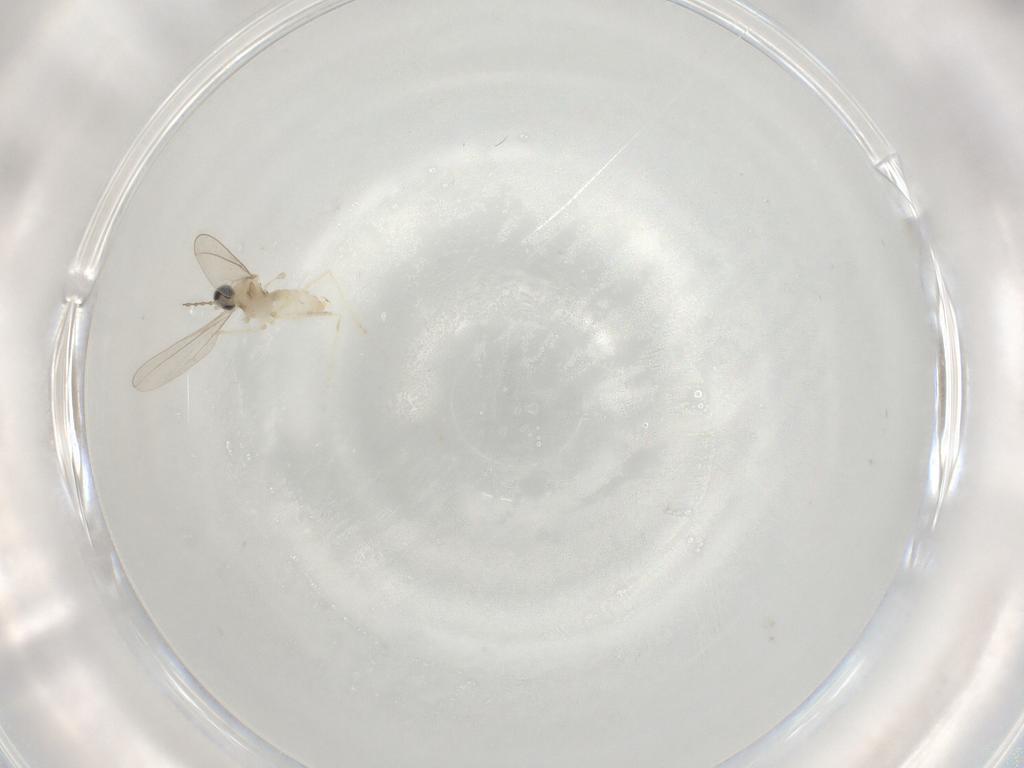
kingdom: Animalia
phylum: Arthropoda
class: Insecta
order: Diptera
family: Cecidomyiidae
